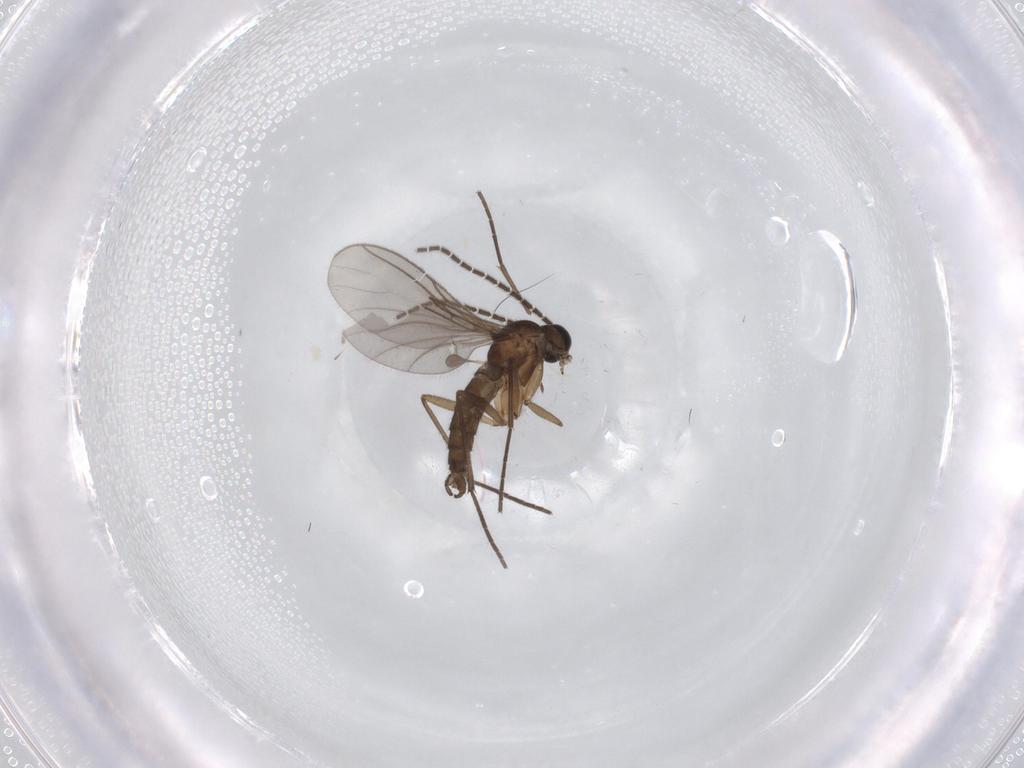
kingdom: Animalia
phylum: Arthropoda
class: Insecta
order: Diptera
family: Sciaridae
